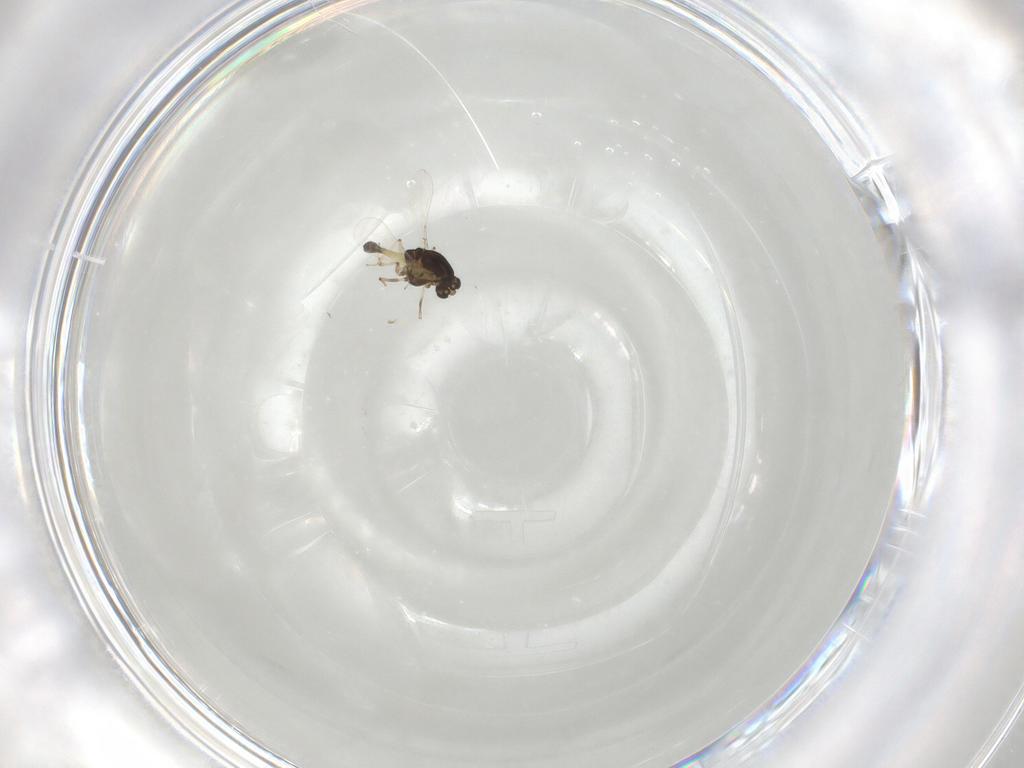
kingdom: Animalia
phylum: Arthropoda
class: Insecta
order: Diptera
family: Chironomidae
